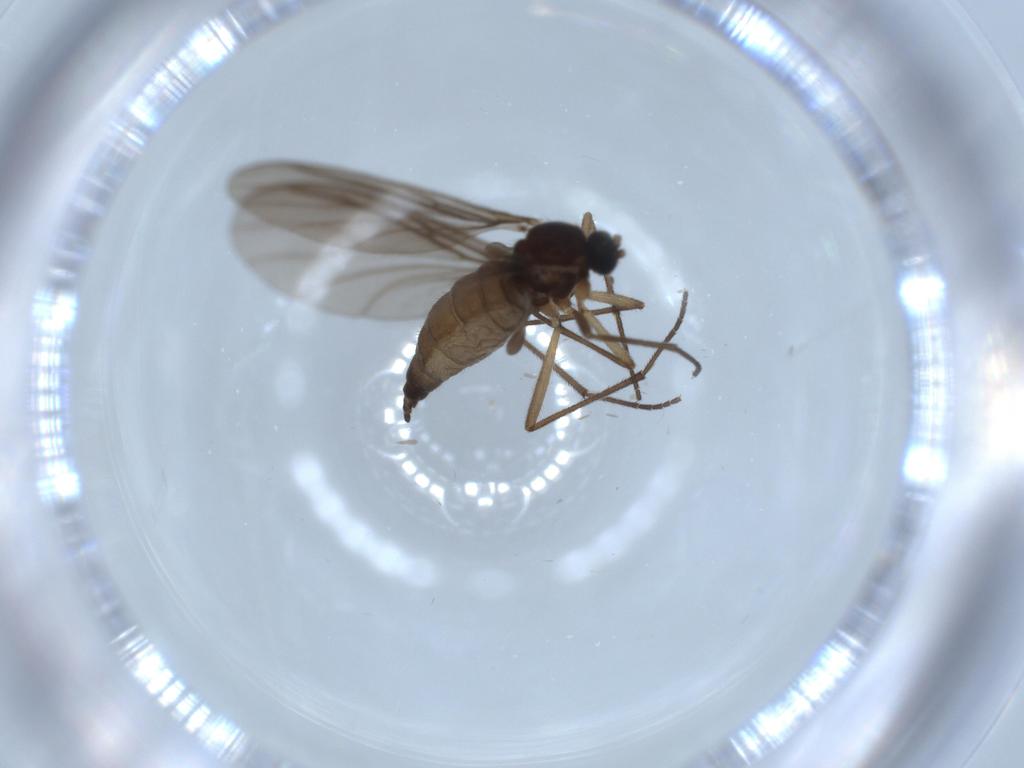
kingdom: Animalia
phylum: Arthropoda
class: Insecta
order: Diptera
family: Sciaridae
